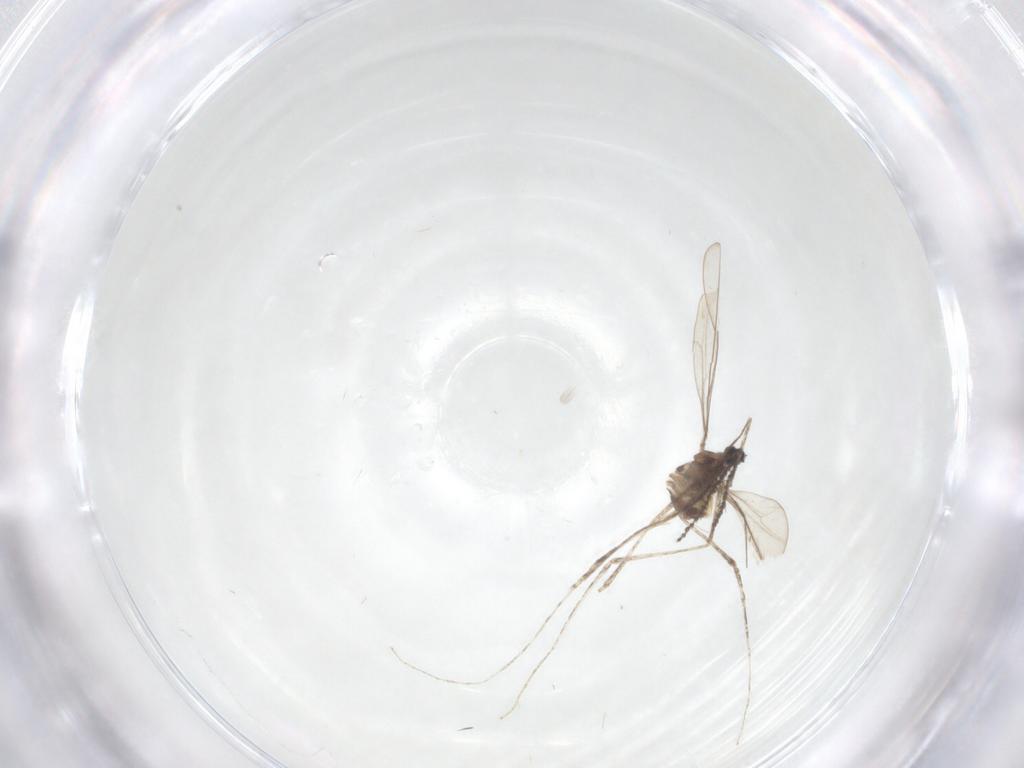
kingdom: Animalia
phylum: Arthropoda
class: Insecta
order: Diptera
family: Cecidomyiidae
